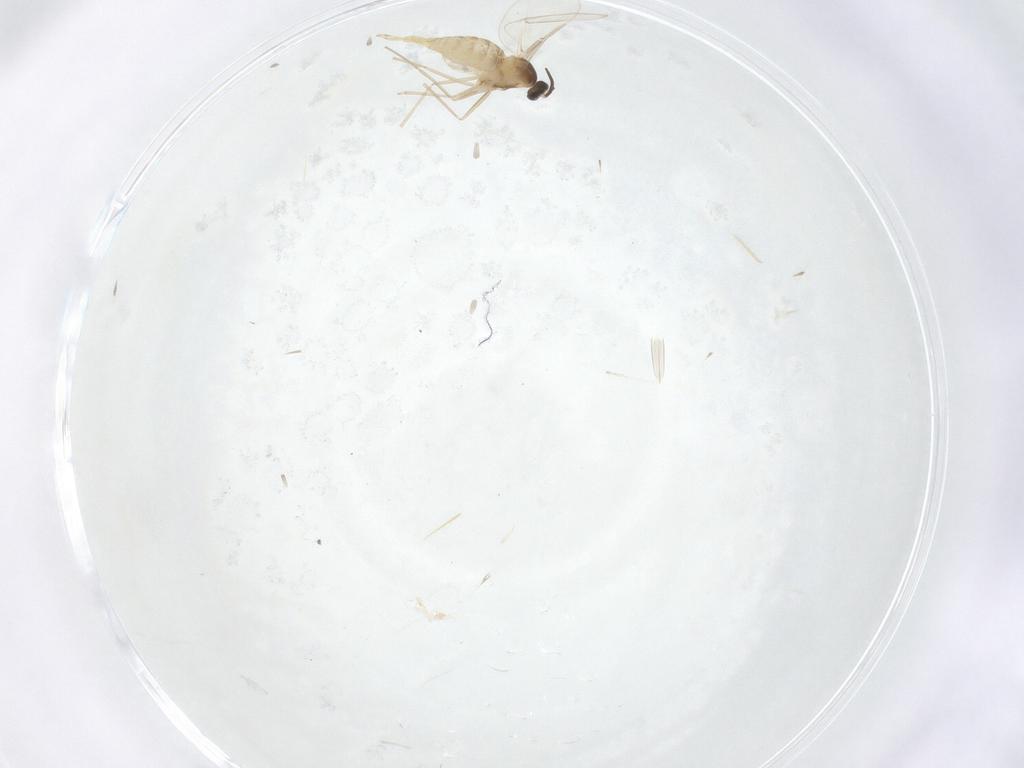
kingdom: Animalia
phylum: Arthropoda
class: Insecta
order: Diptera
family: Cecidomyiidae
